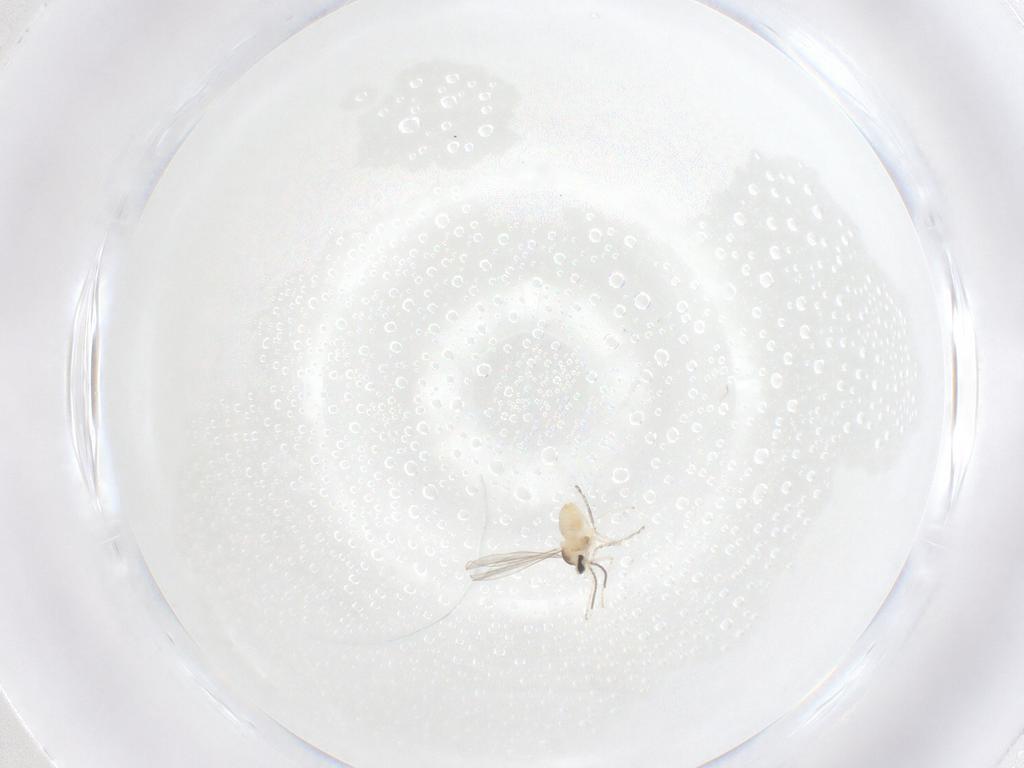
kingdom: Animalia
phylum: Arthropoda
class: Insecta
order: Diptera
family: Cecidomyiidae
